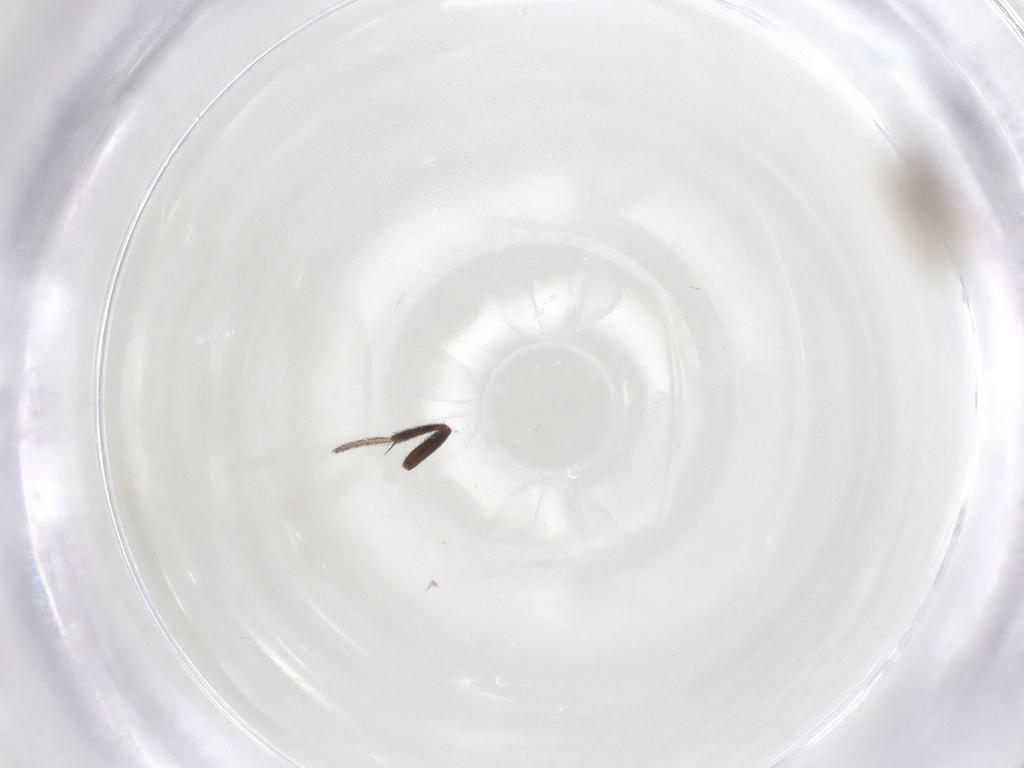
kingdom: Animalia
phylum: Arthropoda
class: Insecta
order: Diptera
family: Chironomidae
